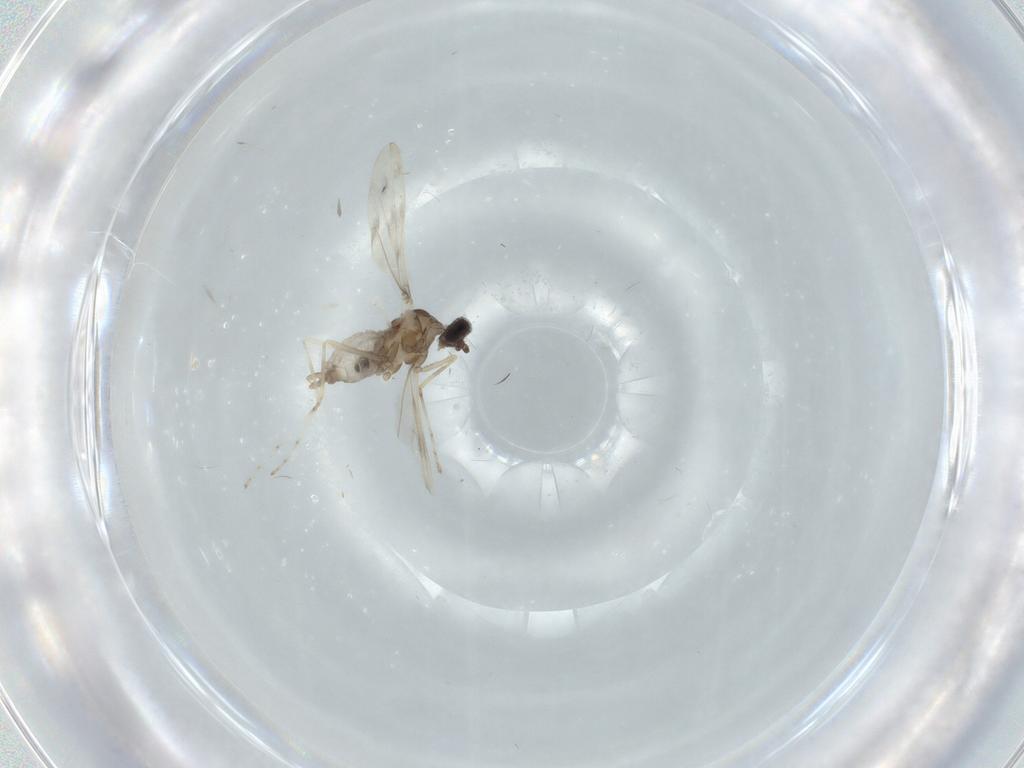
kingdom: Animalia
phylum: Arthropoda
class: Insecta
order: Diptera
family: Cecidomyiidae
